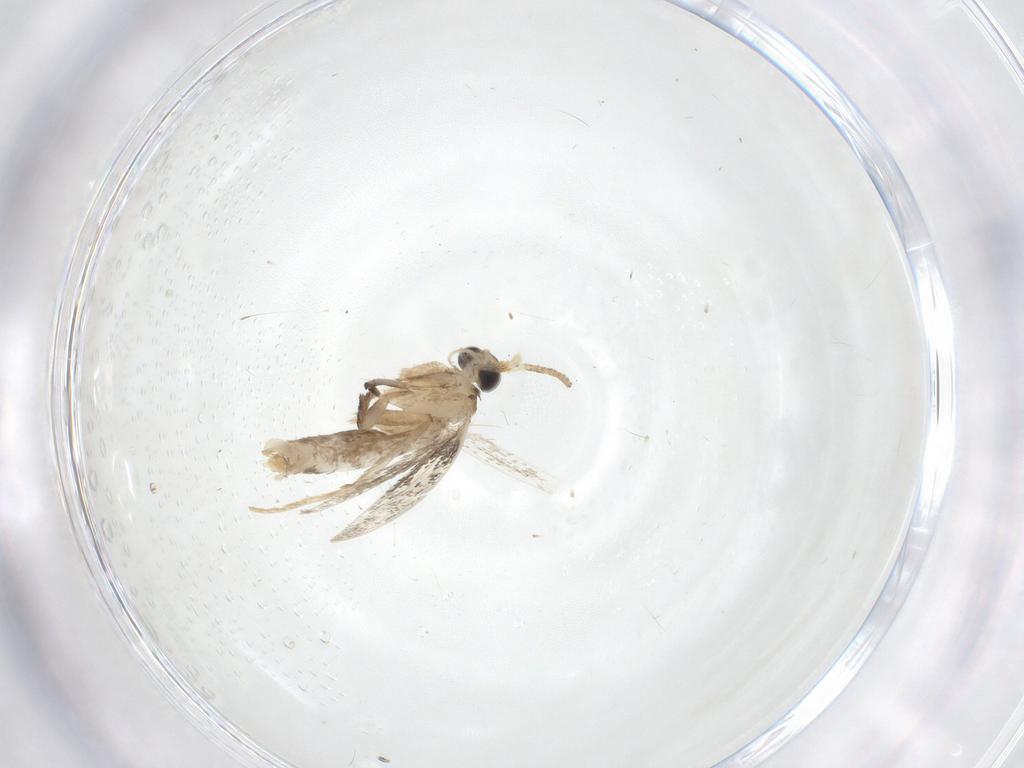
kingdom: Animalia
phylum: Arthropoda
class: Insecta
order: Lepidoptera
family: Dryadaulidae
